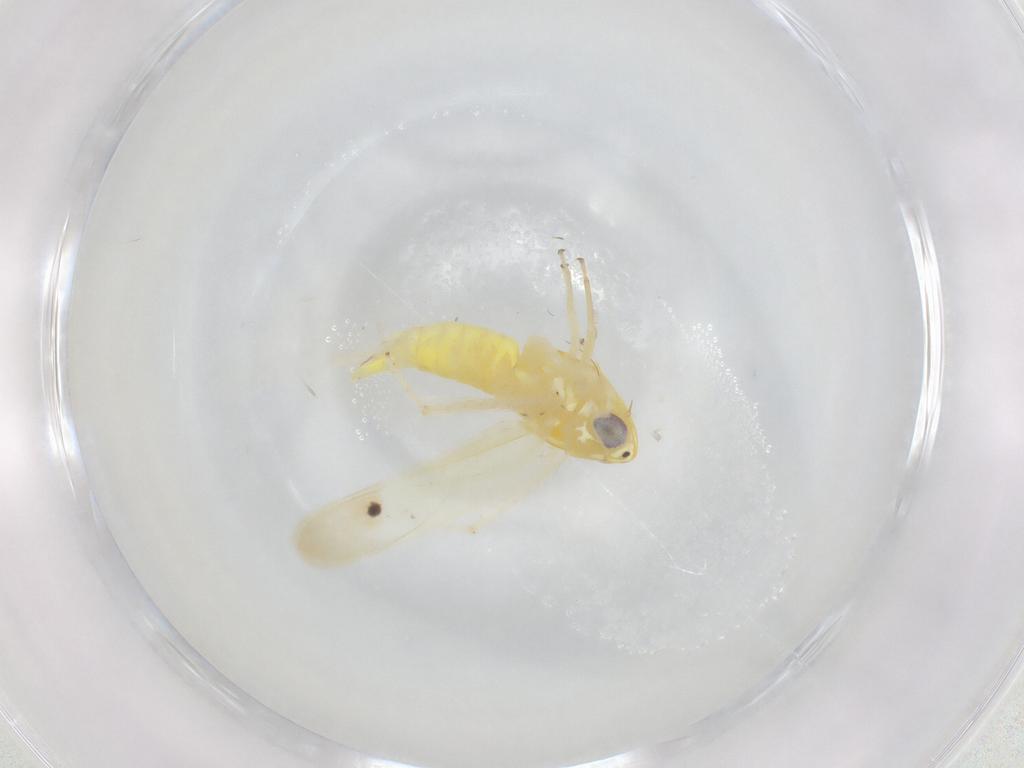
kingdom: Animalia
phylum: Arthropoda
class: Insecta
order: Hemiptera
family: Cicadellidae
